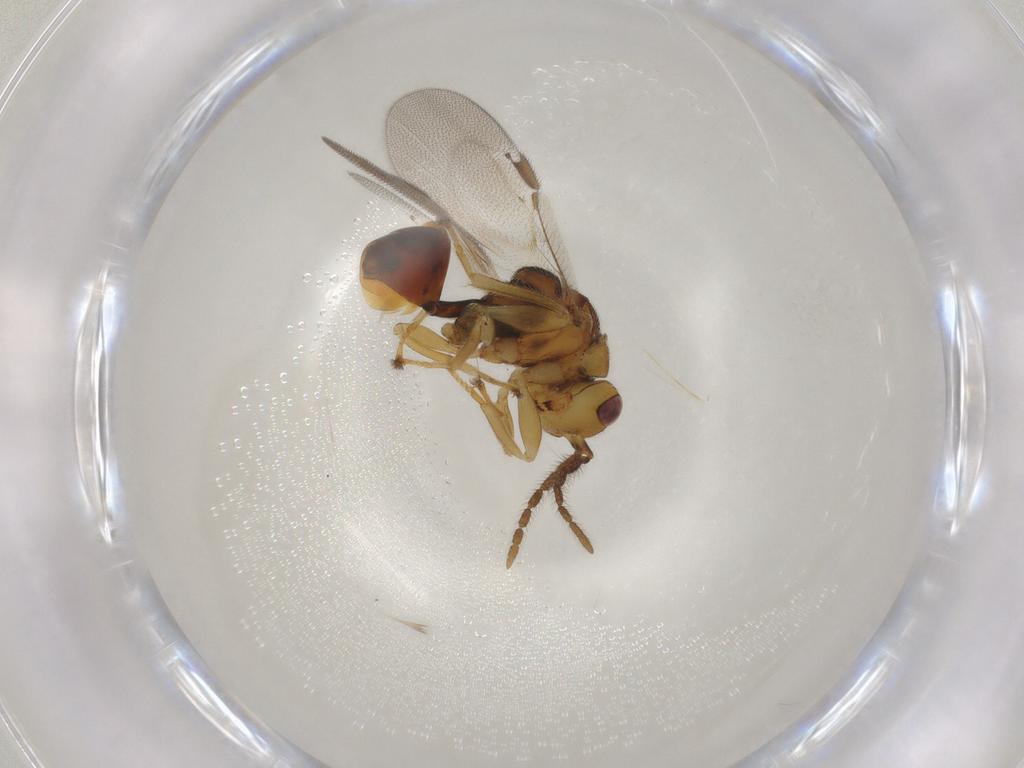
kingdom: Animalia
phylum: Arthropoda
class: Insecta
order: Hymenoptera
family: Eurytomidae
